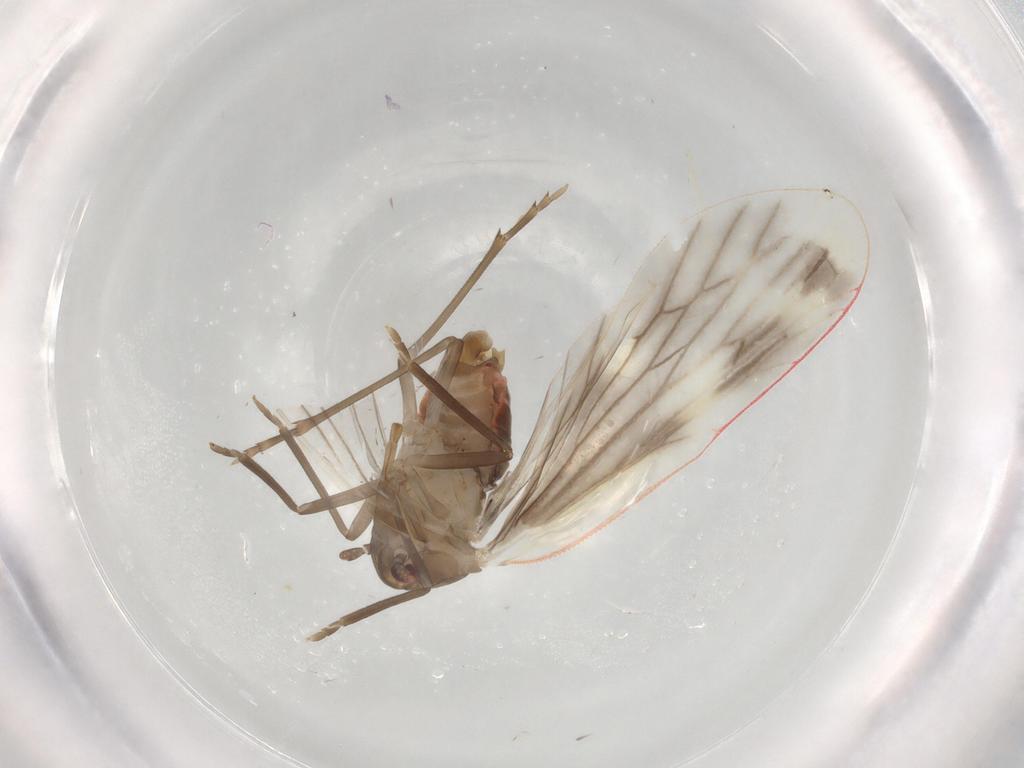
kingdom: Animalia
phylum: Arthropoda
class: Insecta
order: Hemiptera
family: Derbidae
